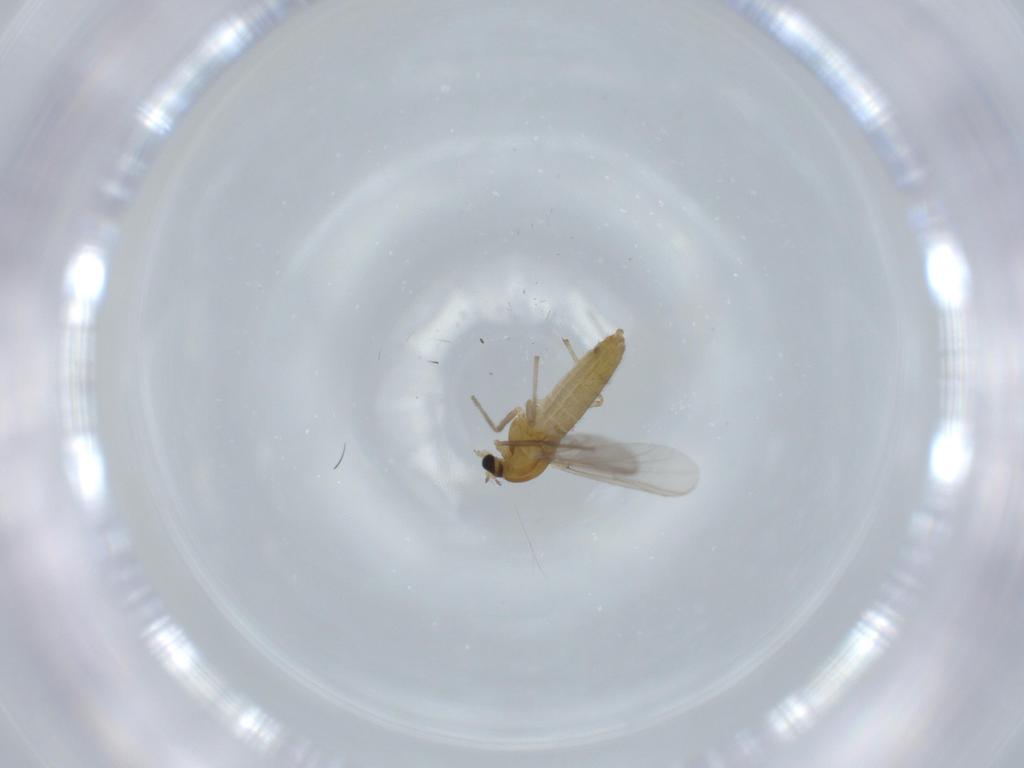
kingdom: Animalia
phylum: Arthropoda
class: Insecta
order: Diptera
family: Chironomidae
